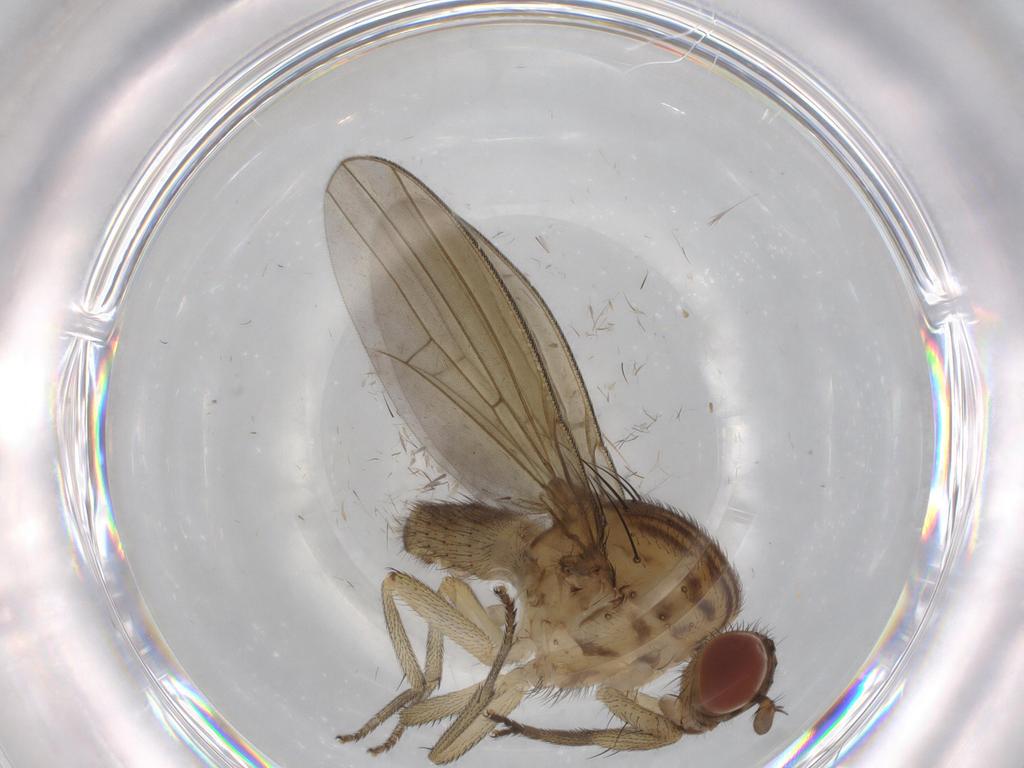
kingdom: Animalia
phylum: Arthropoda
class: Insecta
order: Diptera
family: Cecidomyiidae
